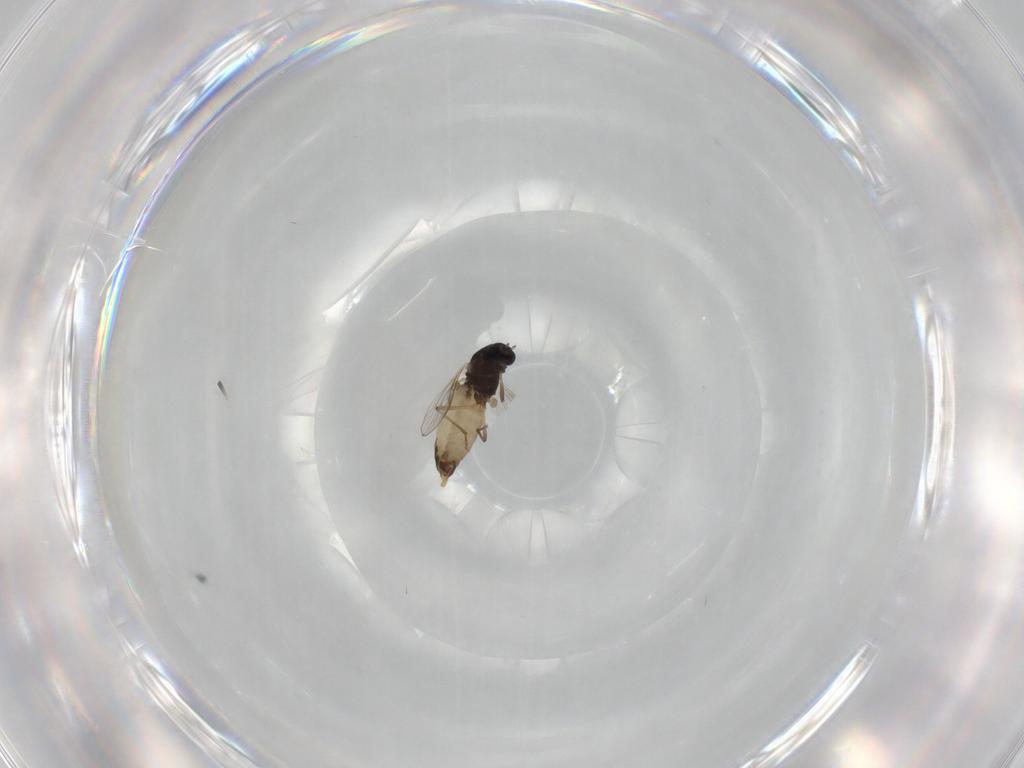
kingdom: Animalia
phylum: Arthropoda
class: Insecta
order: Diptera
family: Chironomidae
